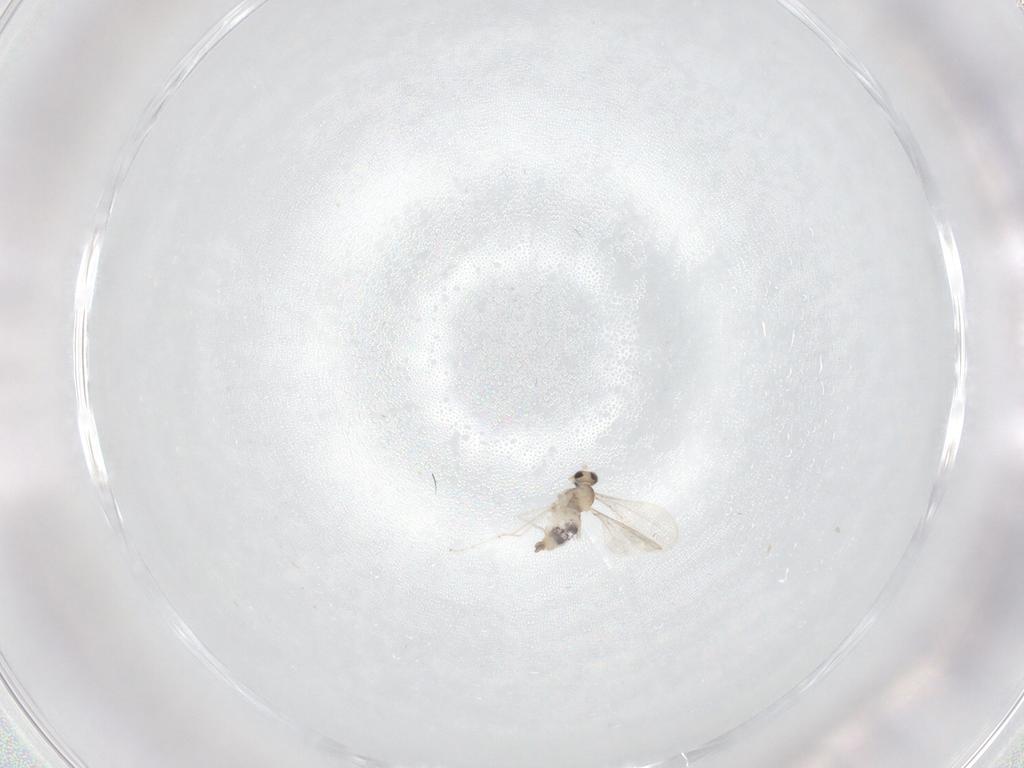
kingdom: Animalia
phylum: Arthropoda
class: Insecta
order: Diptera
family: Cecidomyiidae
